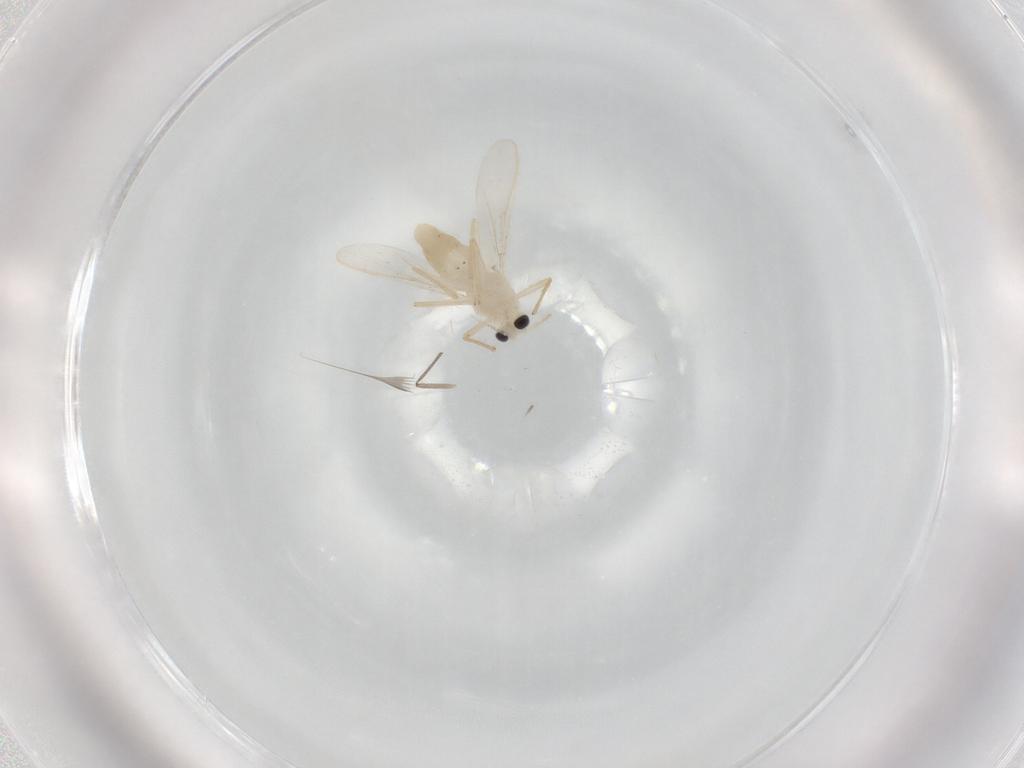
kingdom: Animalia
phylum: Arthropoda
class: Insecta
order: Diptera
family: Chironomidae
